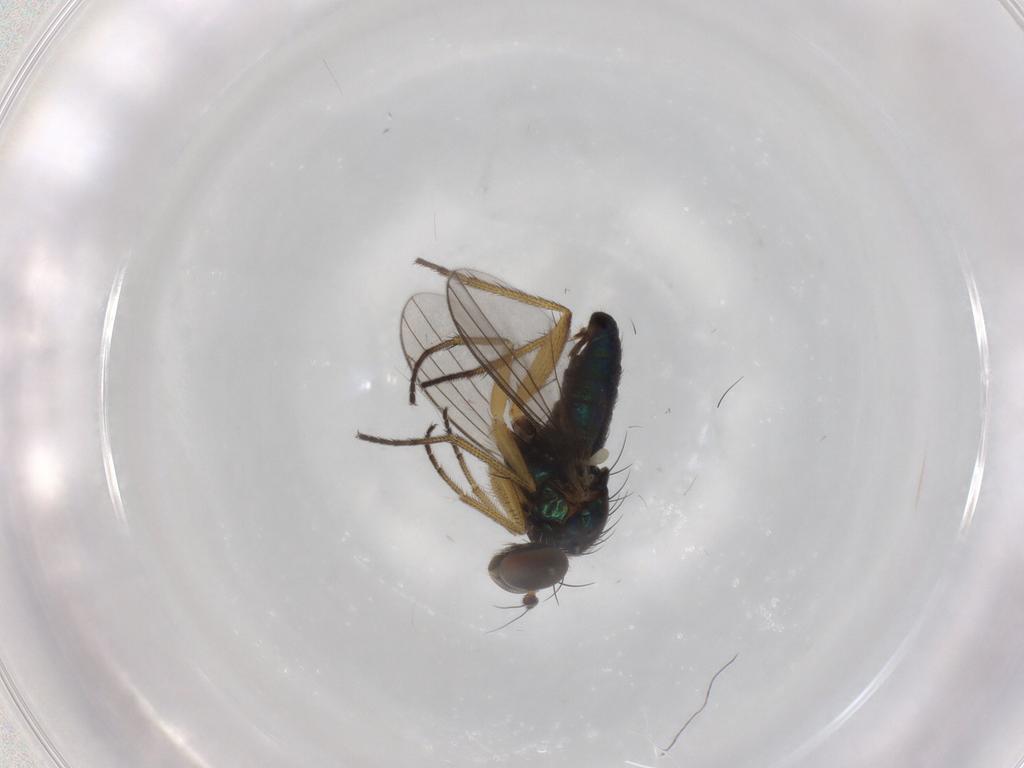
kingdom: Animalia
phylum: Arthropoda
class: Insecta
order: Diptera
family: Dolichopodidae
